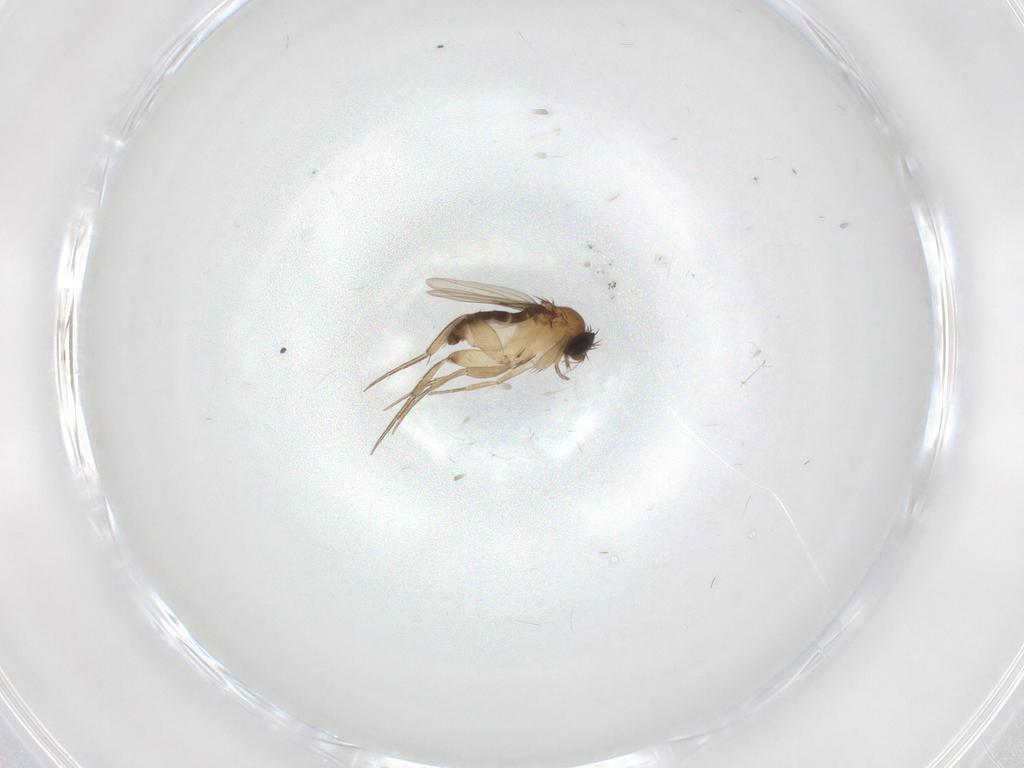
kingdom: Animalia
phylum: Arthropoda
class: Insecta
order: Diptera
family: Phoridae
